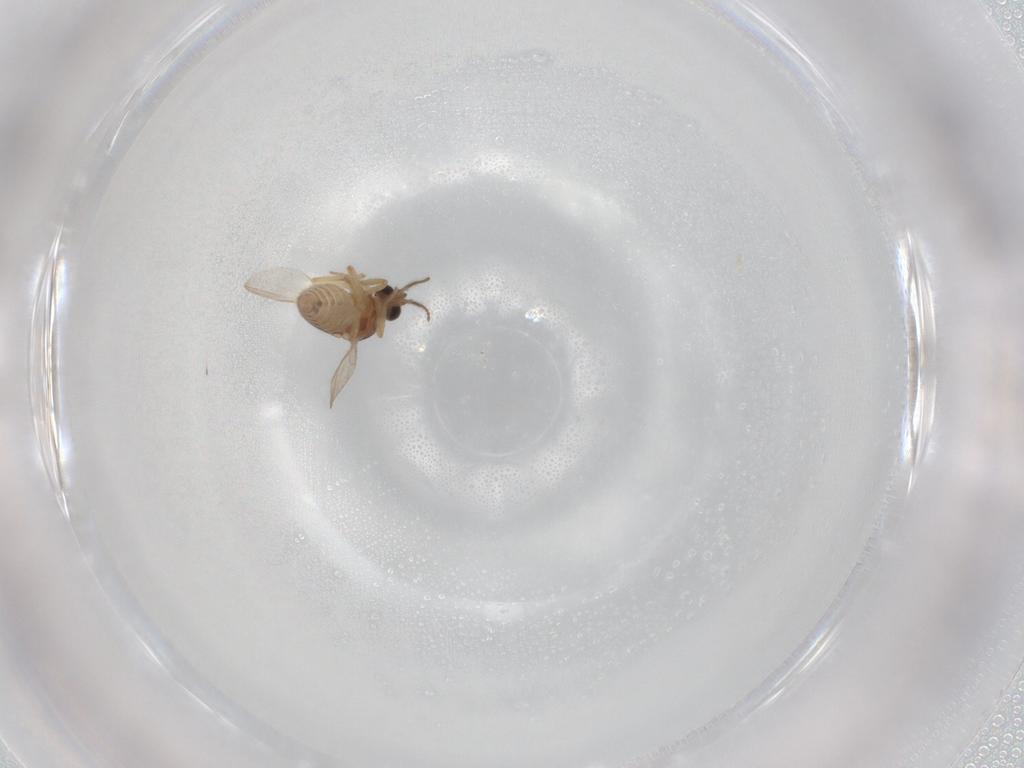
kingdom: Animalia
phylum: Arthropoda
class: Insecta
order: Diptera
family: Ceratopogonidae
